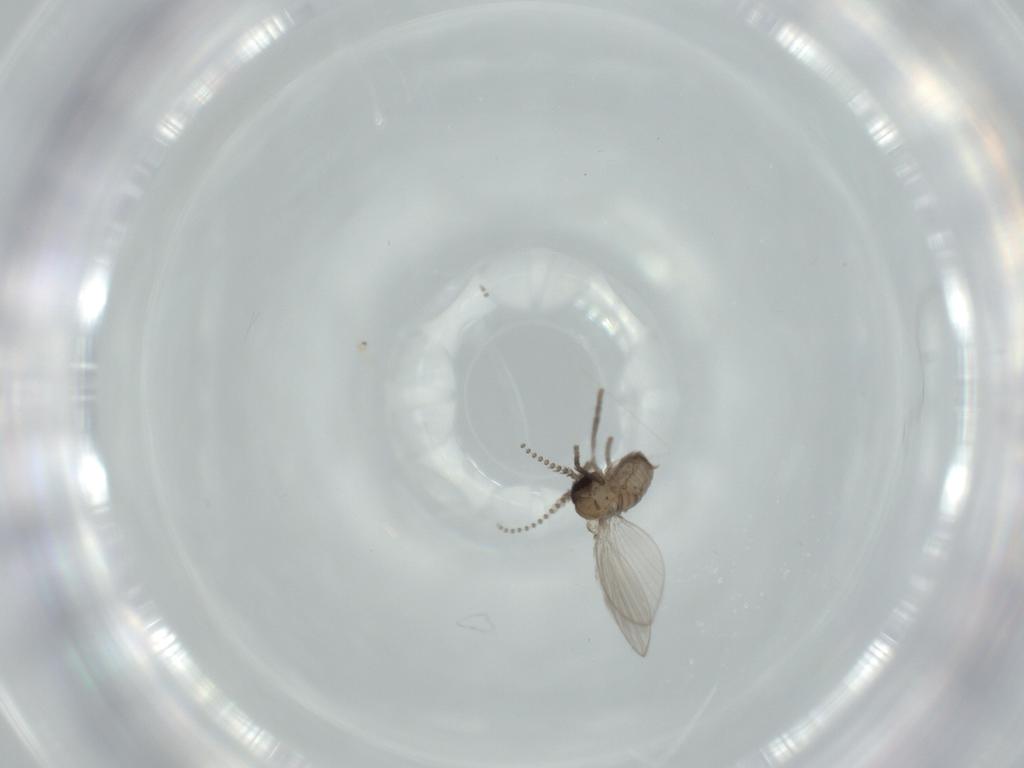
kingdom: Animalia
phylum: Arthropoda
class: Insecta
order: Diptera
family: Psychodidae
